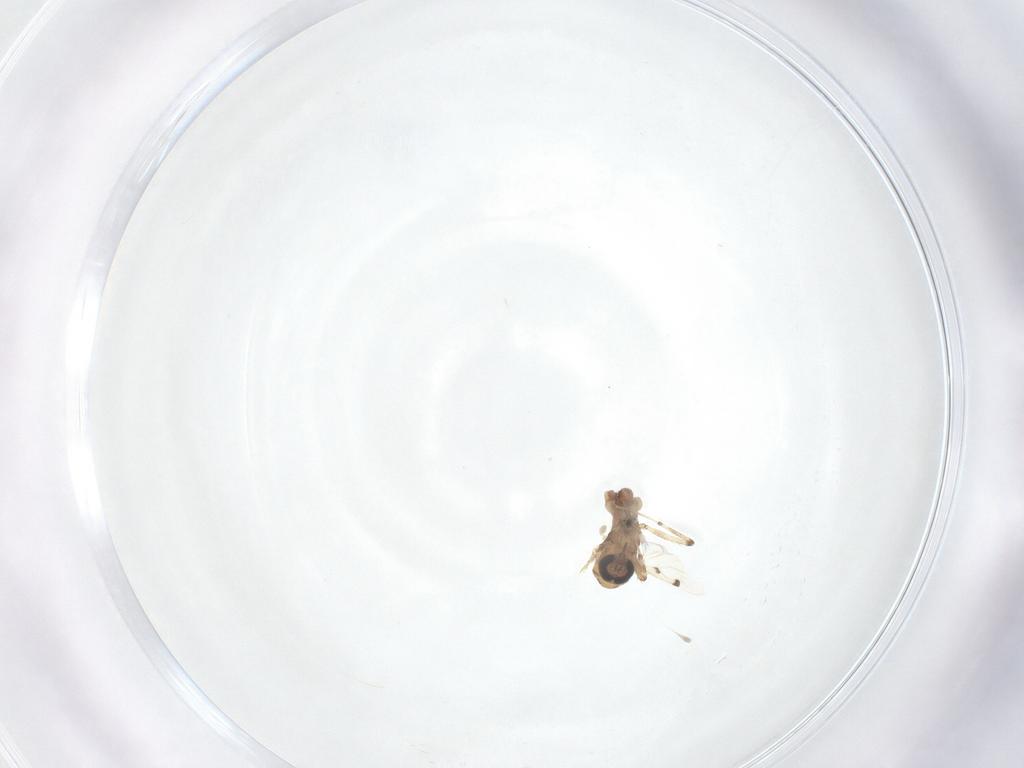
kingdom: Animalia
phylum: Arthropoda
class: Insecta
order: Diptera
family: Ceratopogonidae
